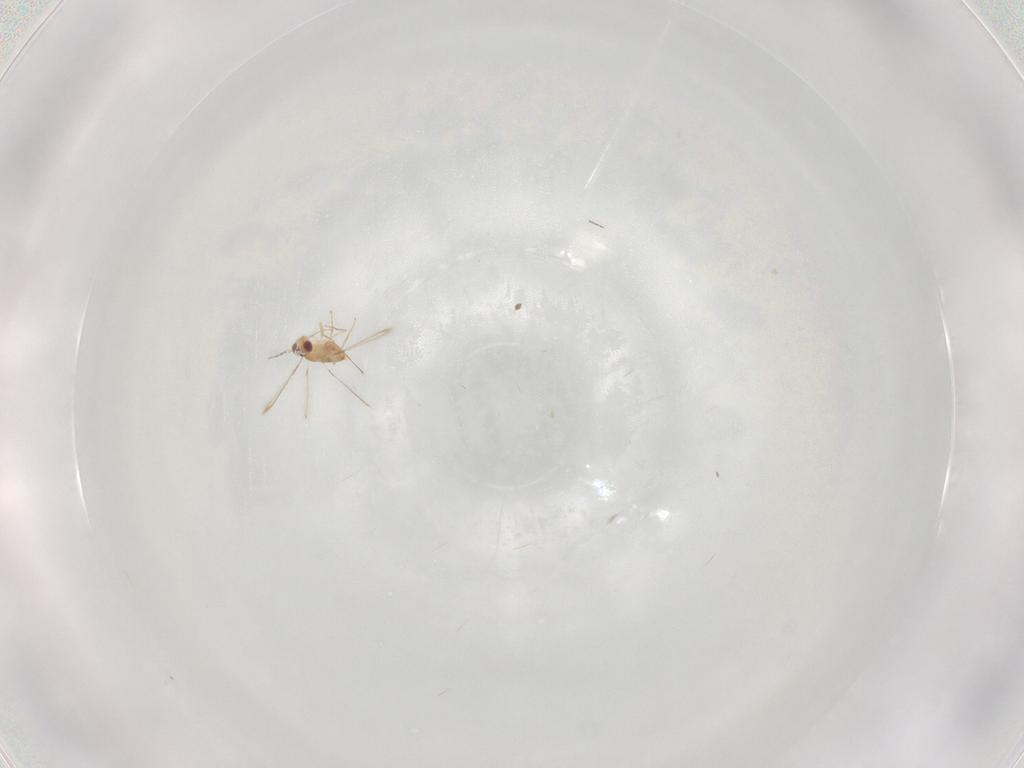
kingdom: Animalia
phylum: Arthropoda
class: Insecta
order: Hymenoptera
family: Mymaridae
